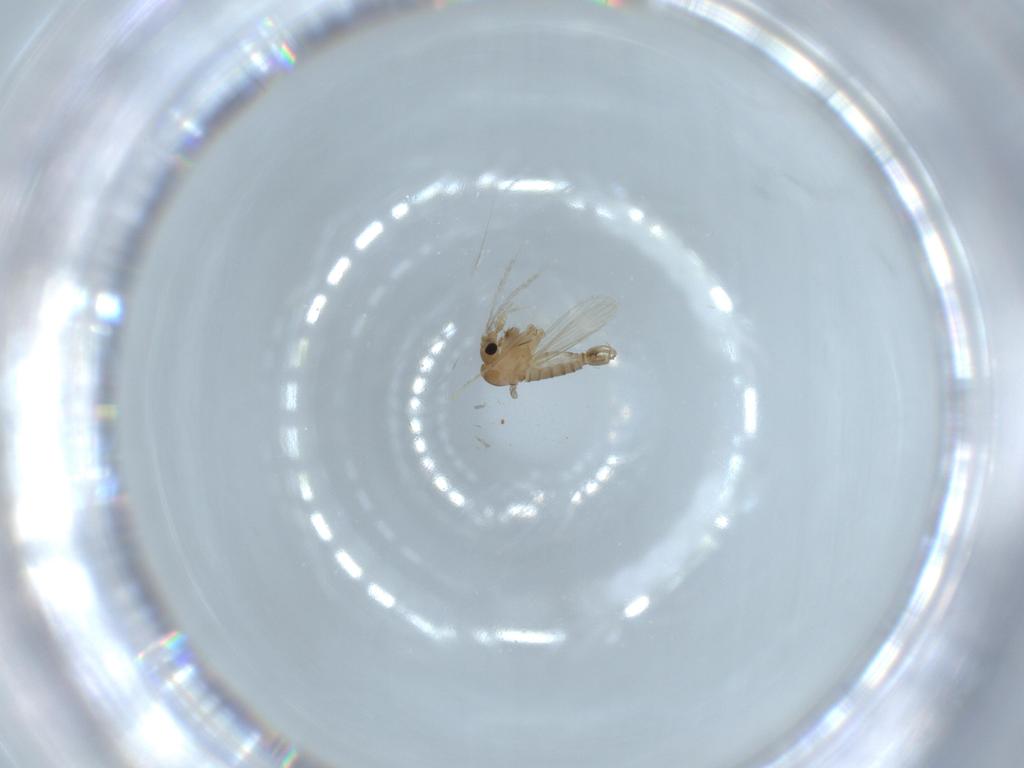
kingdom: Animalia
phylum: Arthropoda
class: Insecta
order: Diptera
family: Psychodidae
